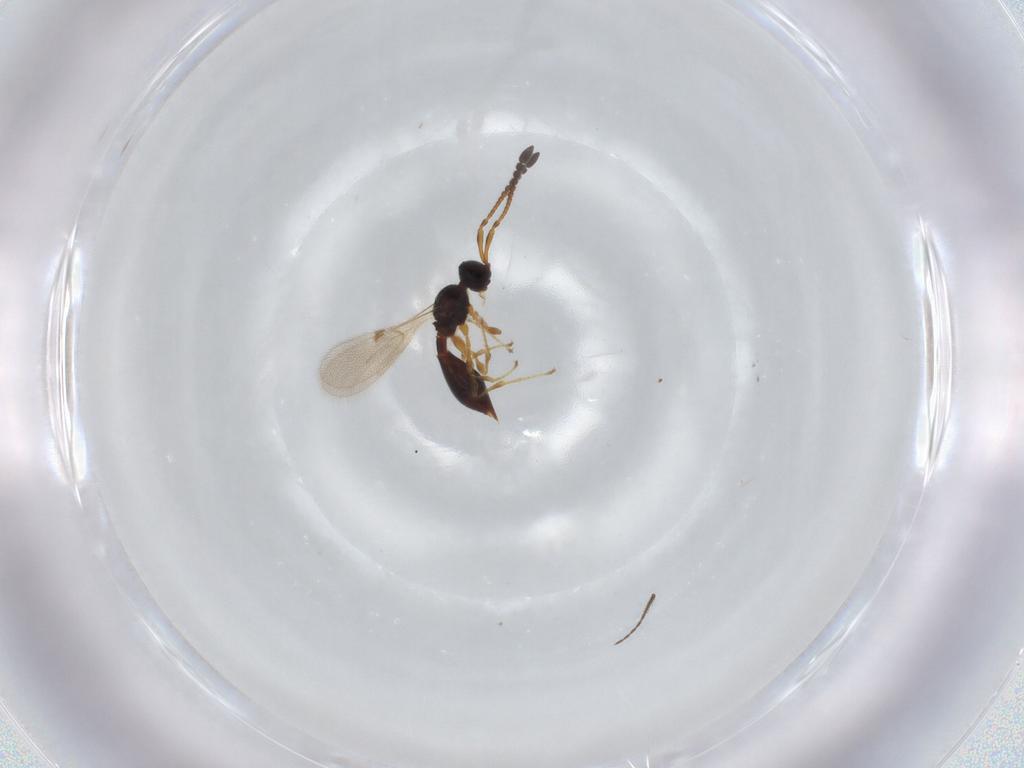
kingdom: Animalia
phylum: Arthropoda
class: Insecta
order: Hymenoptera
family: Diapriidae
